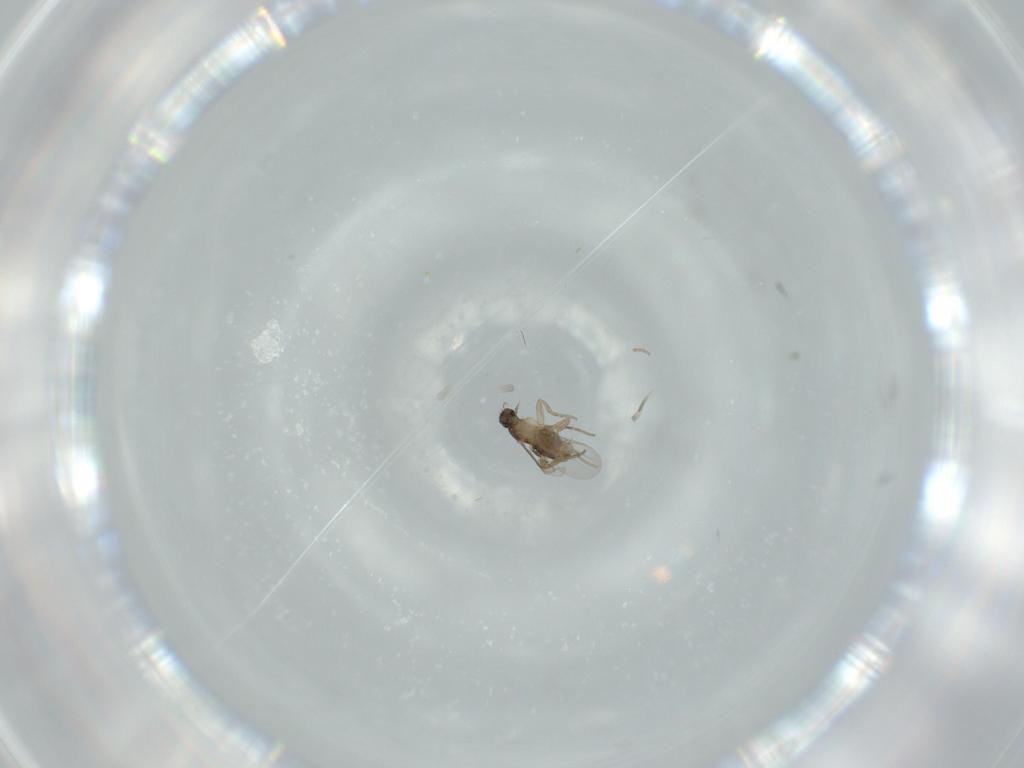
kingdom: Animalia
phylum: Arthropoda
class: Insecta
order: Diptera
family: Phoridae
